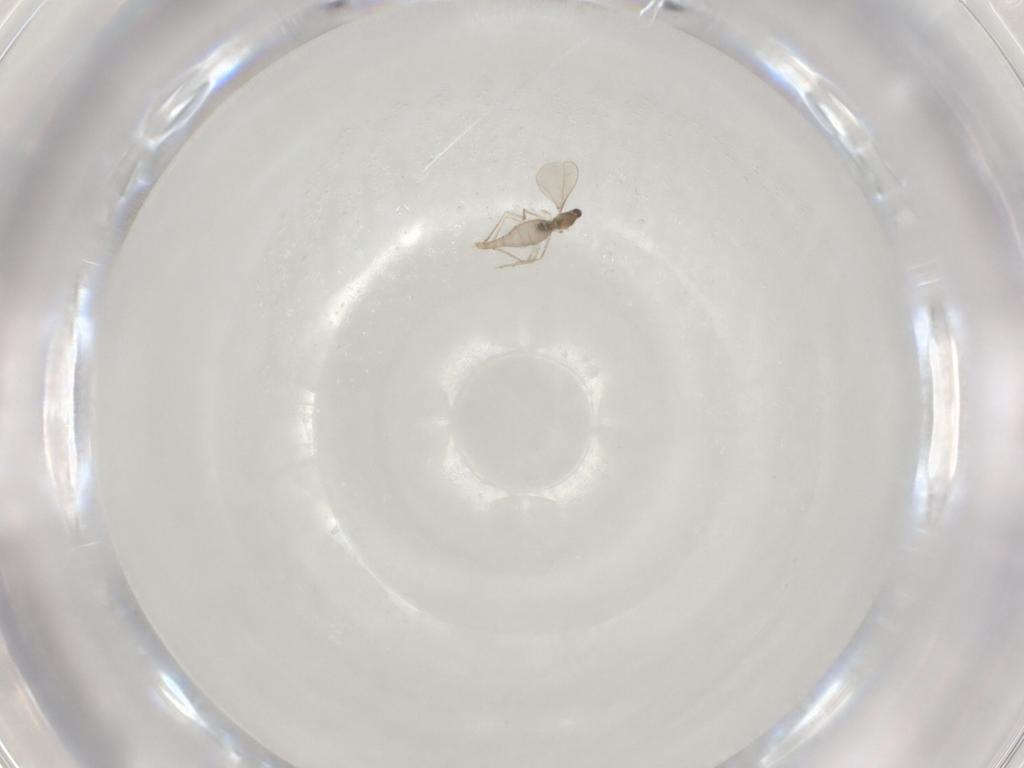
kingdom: Animalia
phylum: Arthropoda
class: Insecta
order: Diptera
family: Cecidomyiidae
